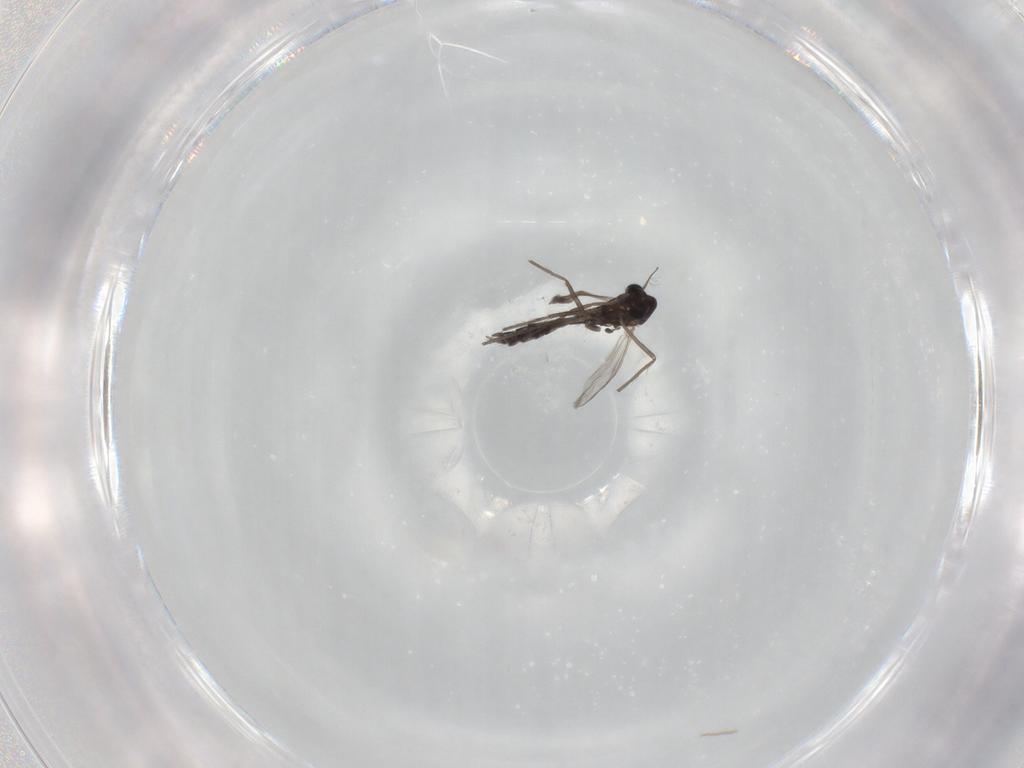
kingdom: Animalia
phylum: Arthropoda
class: Insecta
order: Diptera
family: Chironomidae
